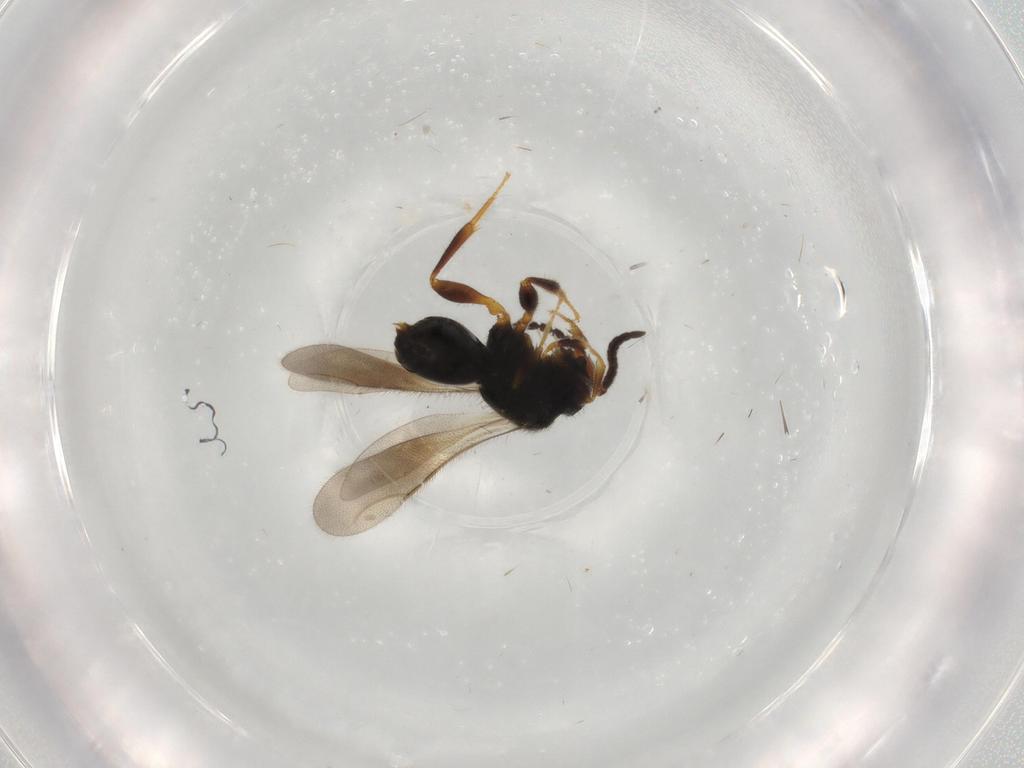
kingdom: Animalia
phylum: Arthropoda
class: Insecta
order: Hymenoptera
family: Ceraphronidae
